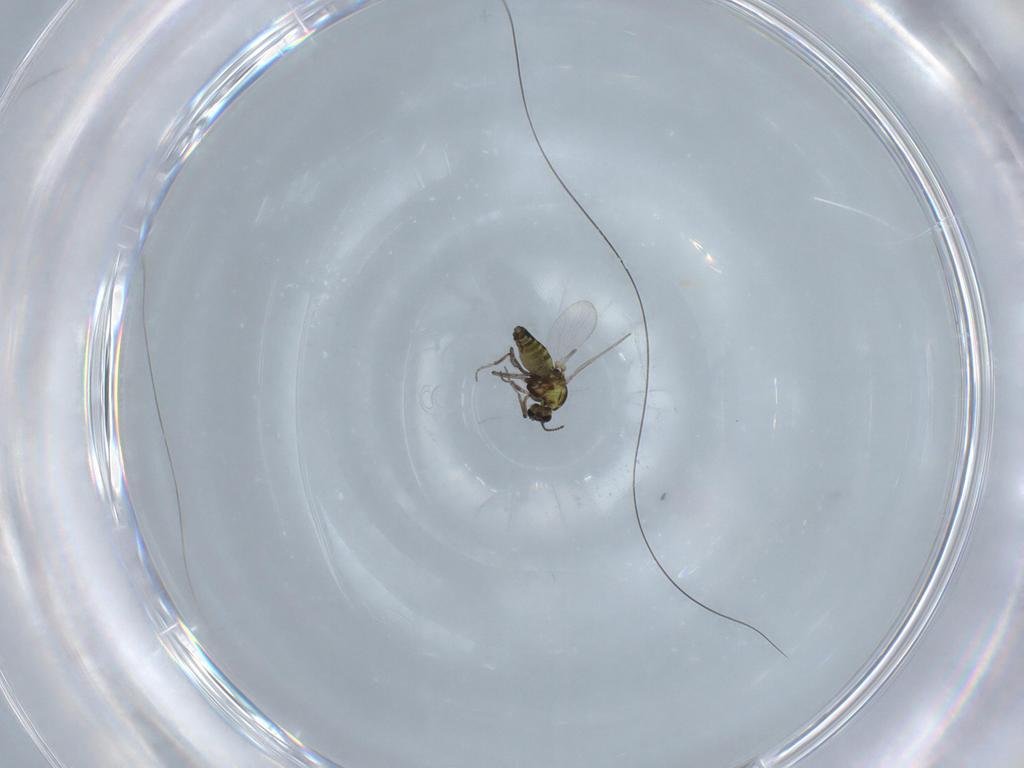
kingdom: Animalia
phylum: Arthropoda
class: Insecta
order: Diptera
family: Ceratopogonidae
